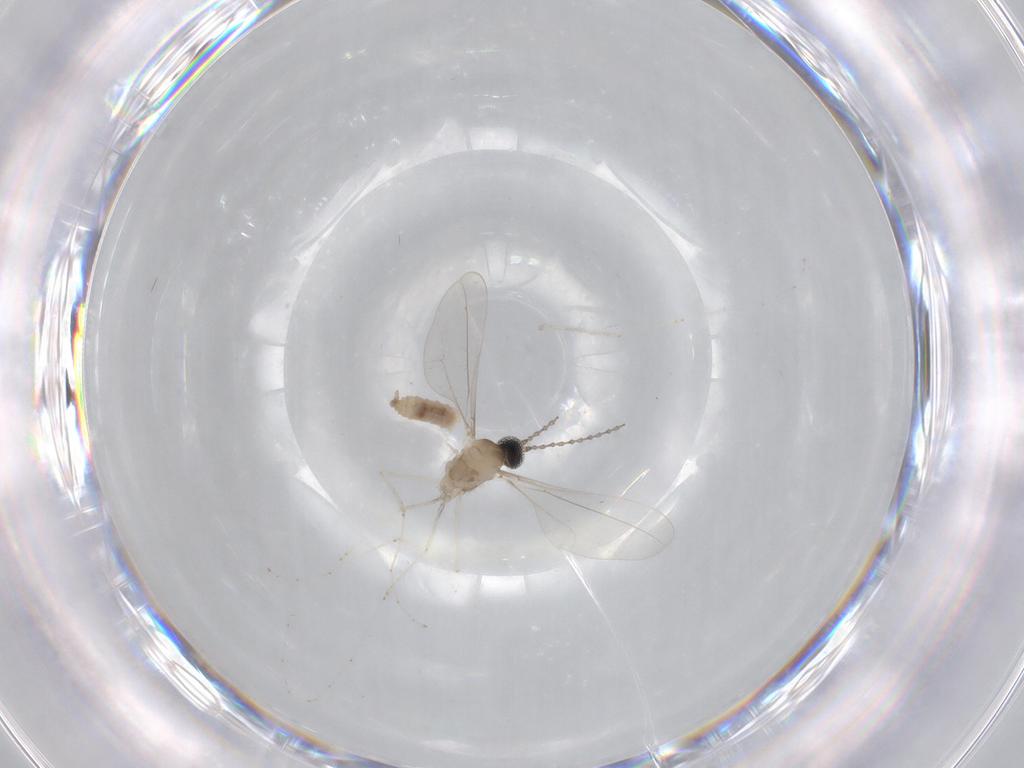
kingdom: Animalia
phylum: Arthropoda
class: Insecta
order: Diptera
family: Cecidomyiidae
